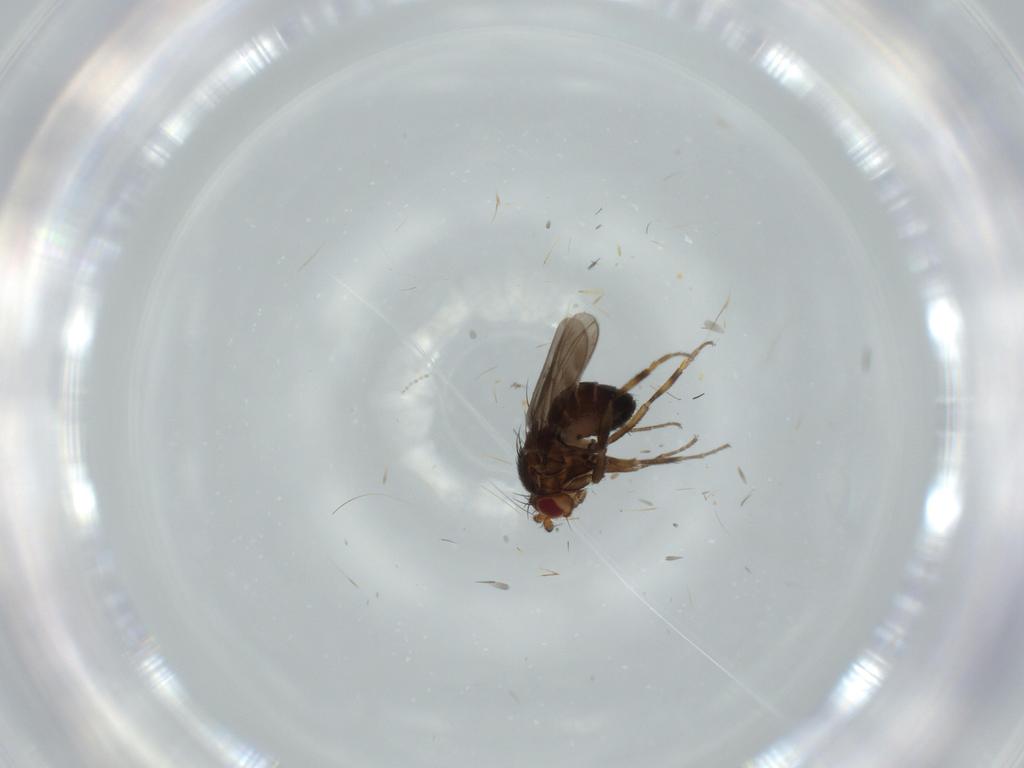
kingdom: Animalia
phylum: Arthropoda
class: Insecta
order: Diptera
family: Sphaeroceridae
